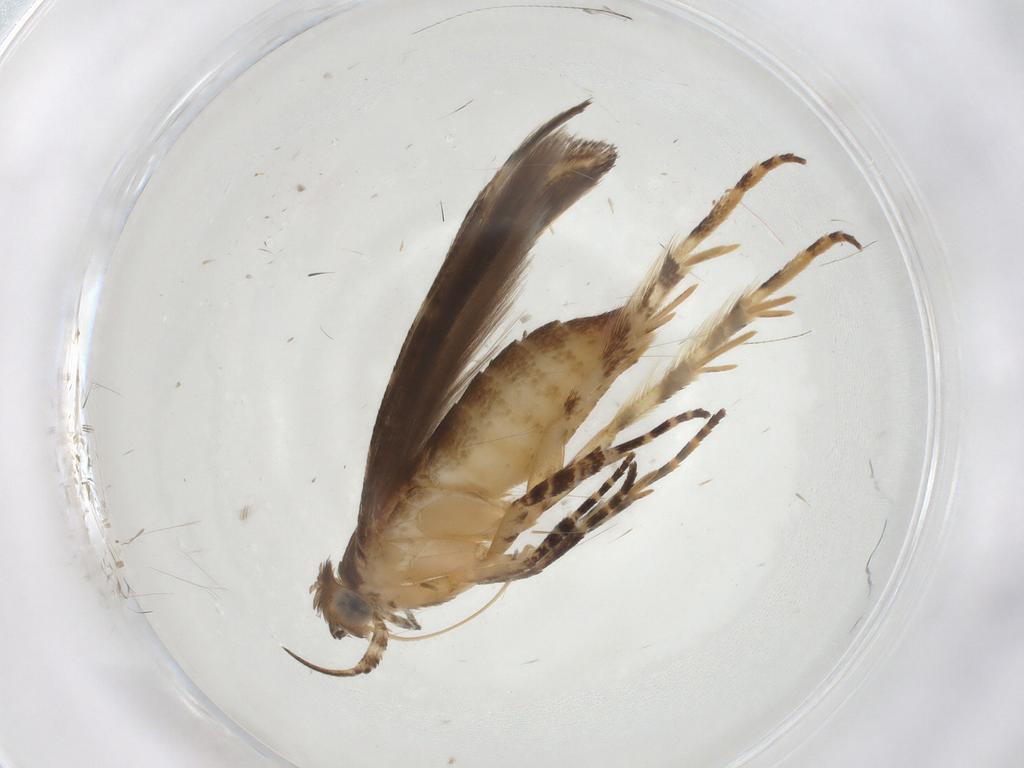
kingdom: Animalia
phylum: Arthropoda
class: Insecta
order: Lepidoptera
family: Gelechiidae
